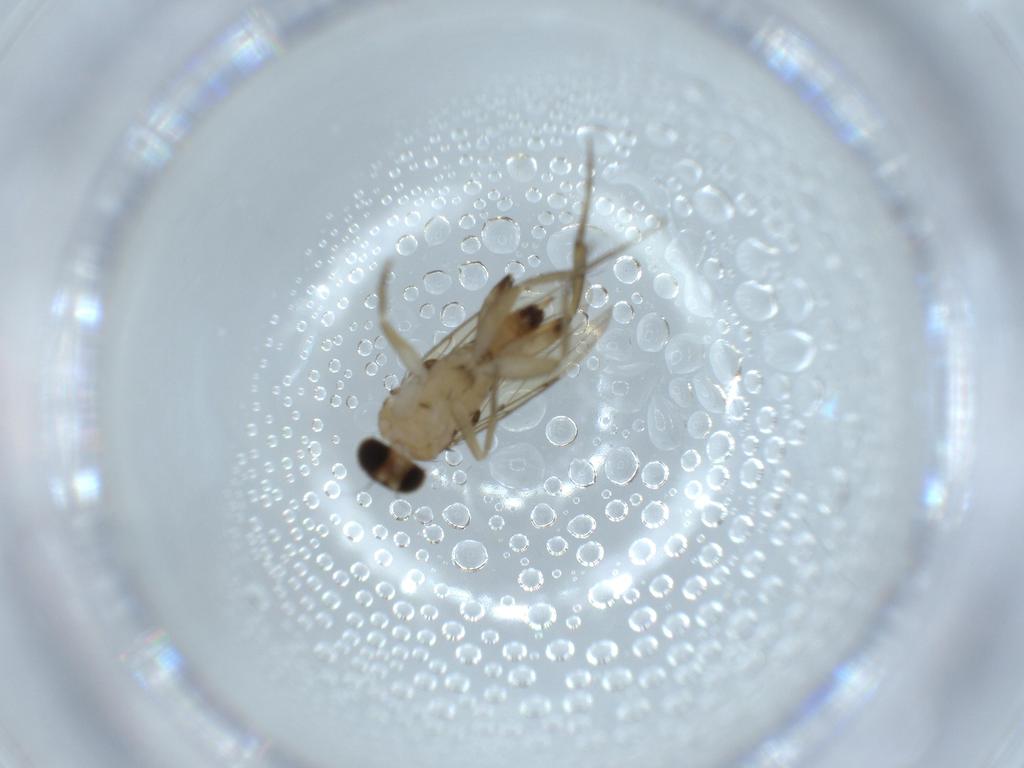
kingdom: Animalia
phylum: Arthropoda
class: Insecta
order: Diptera
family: Phoridae
